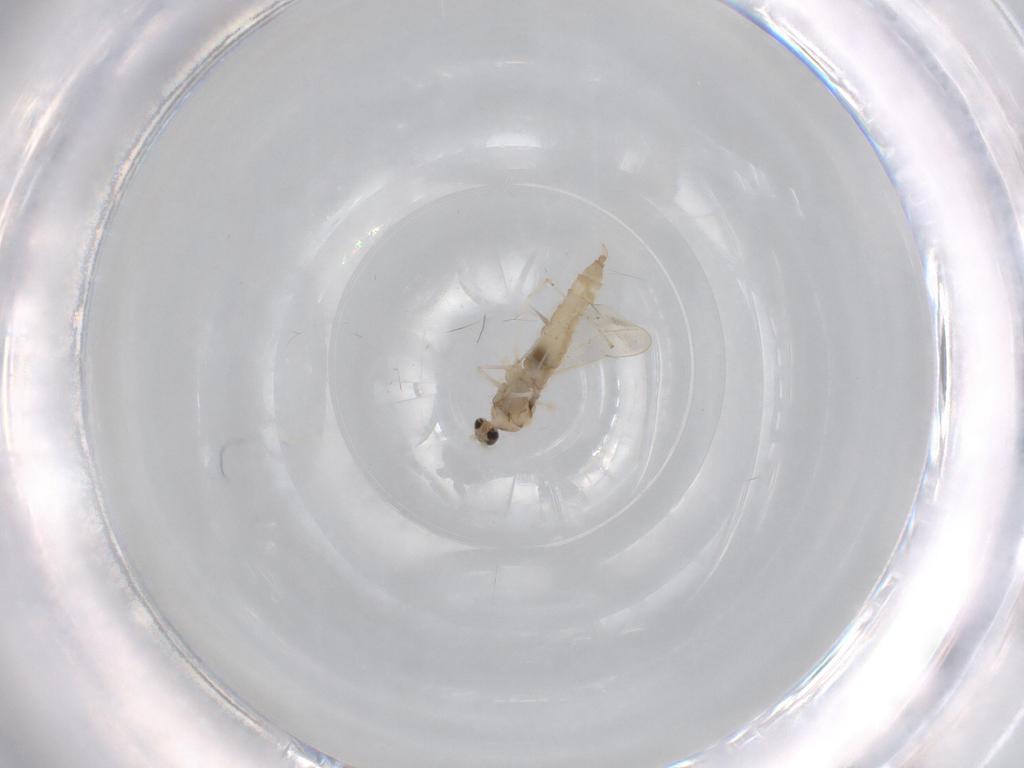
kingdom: Animalia
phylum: Arthropoda
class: Insecta
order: Diptera
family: Cecidomyiidae
